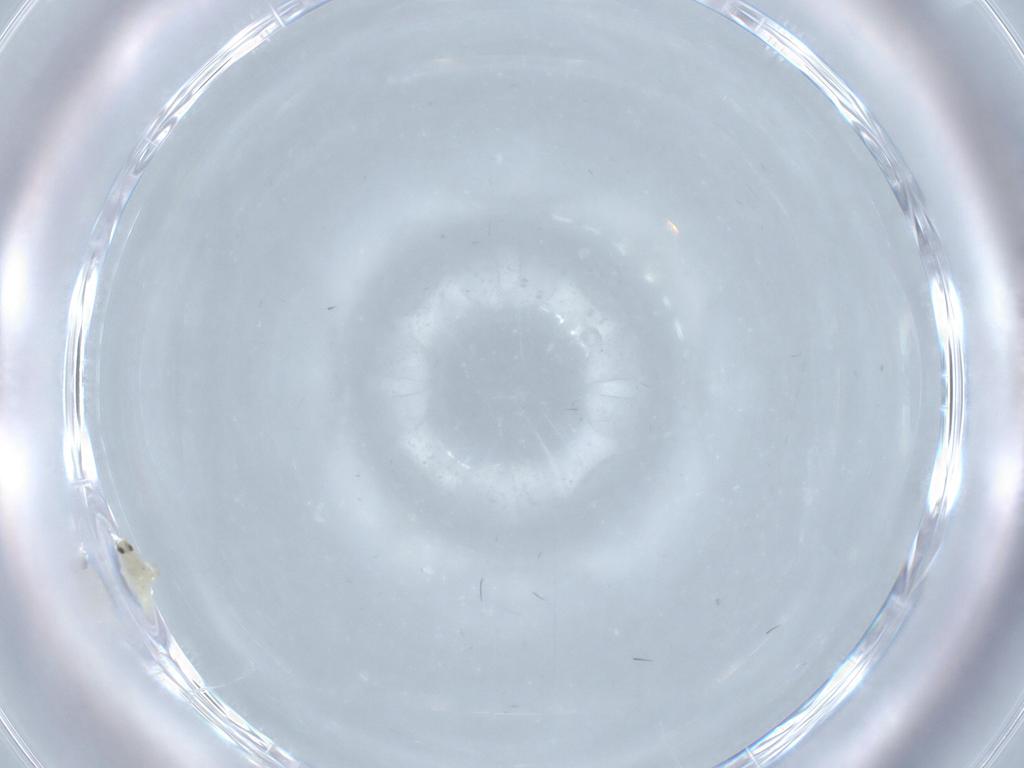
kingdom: Animalia
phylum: Arthropoda
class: Insecta
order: Hemiptera
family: Aleyrodidae
